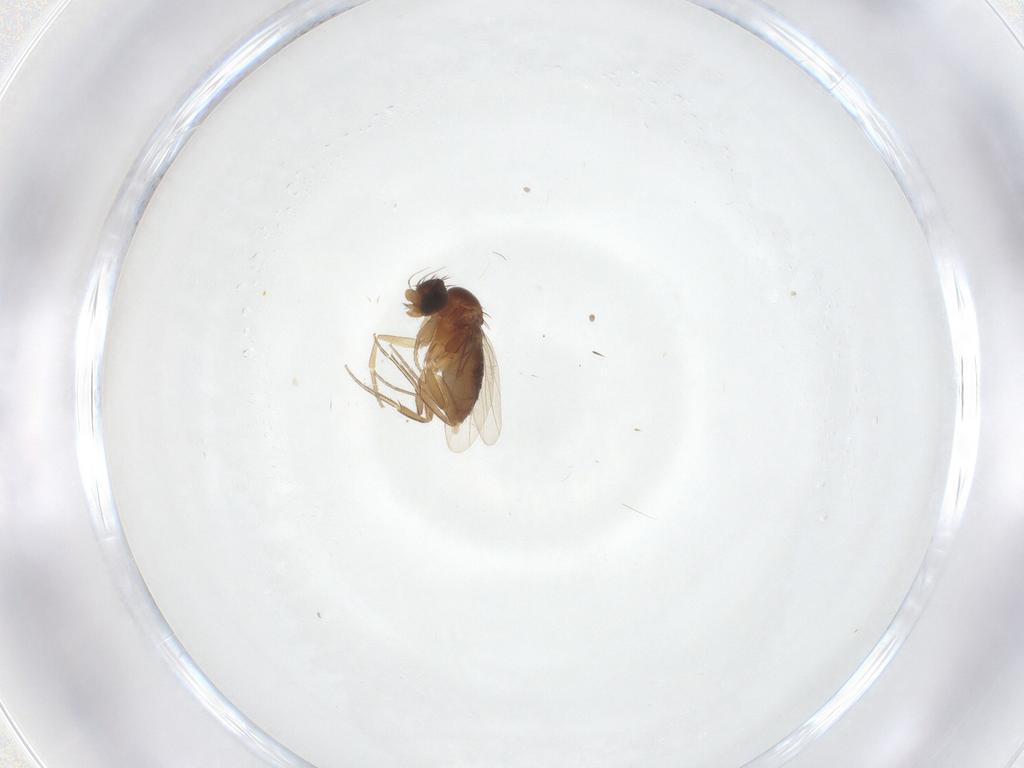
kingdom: Animalia
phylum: Arthropoda
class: Insecta
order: Diptera
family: Phoridae
